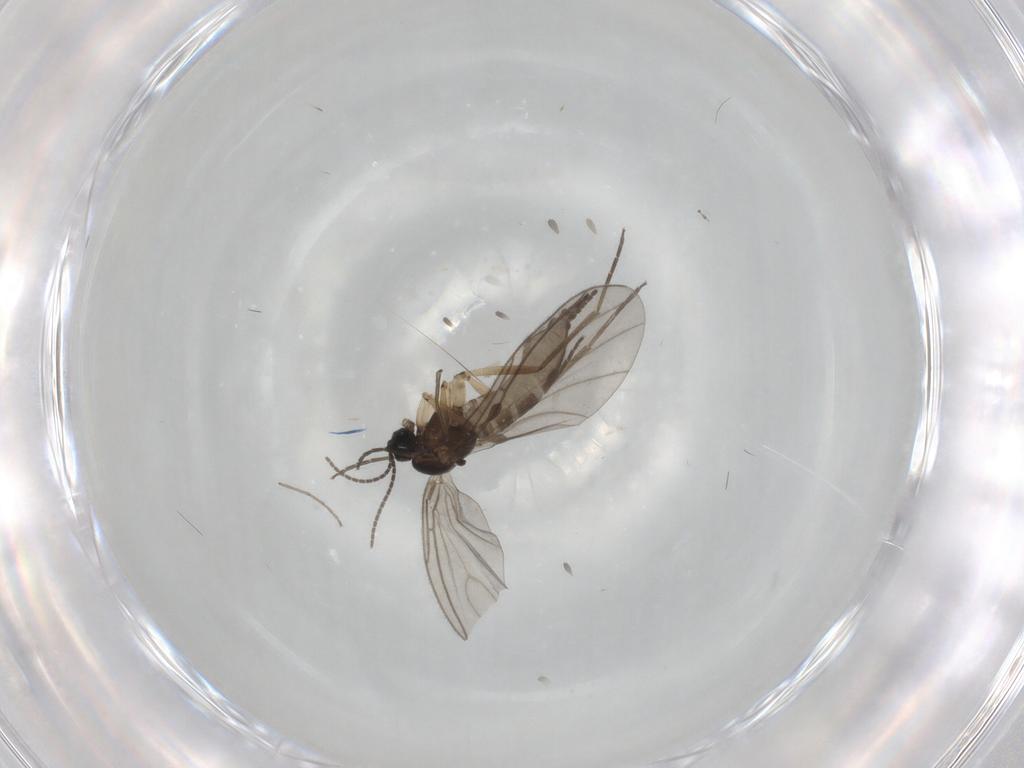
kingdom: Animalia
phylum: Arthropoda
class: Insecta
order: Diptera
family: Sciaridae
